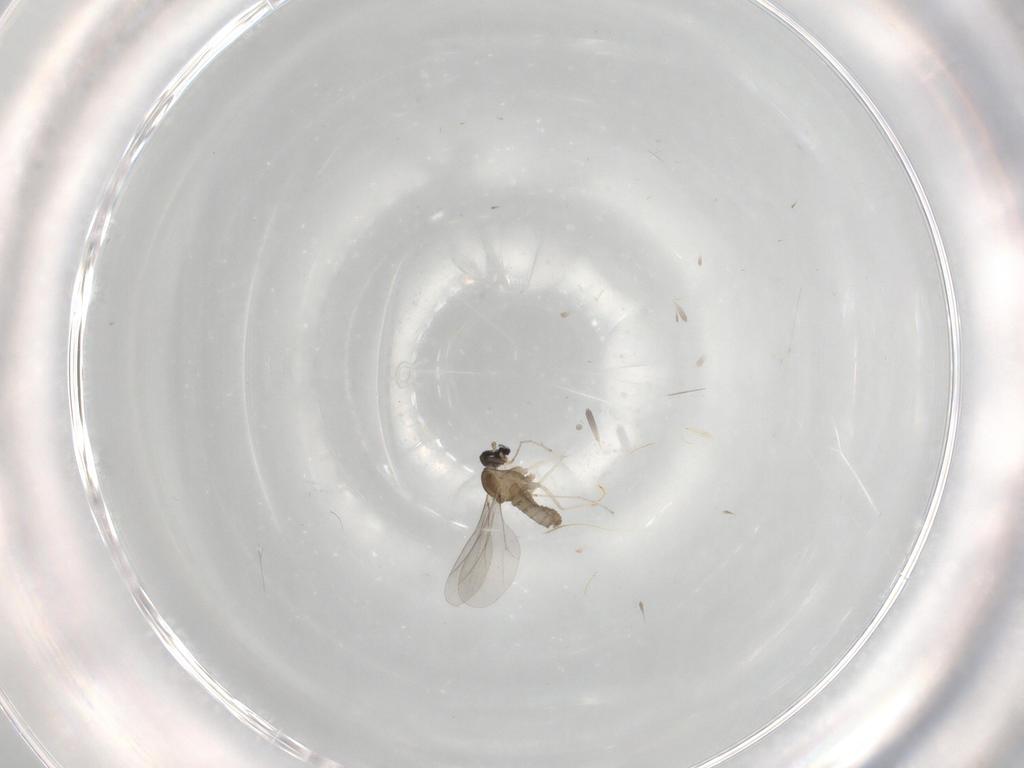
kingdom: Animalia
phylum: Arthropoda
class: Insecta
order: Diptera
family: Cecidomyiidae
